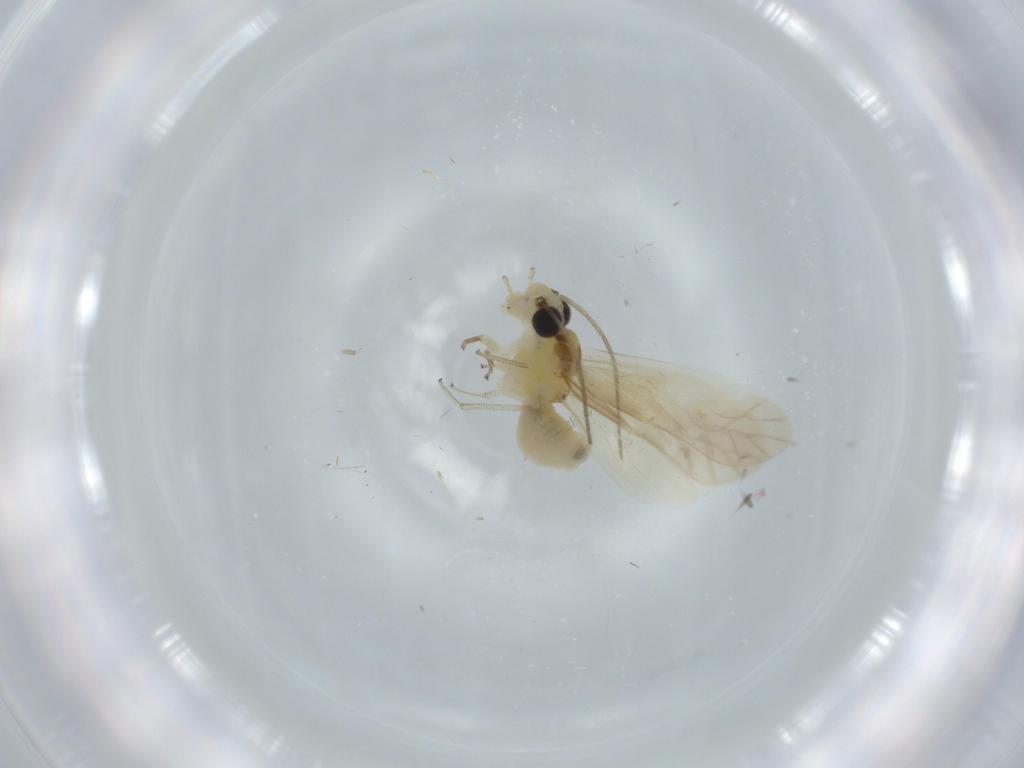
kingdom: Animalia
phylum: Arthropoda
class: Insecta
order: Psocodea
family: Caeciliusidae
